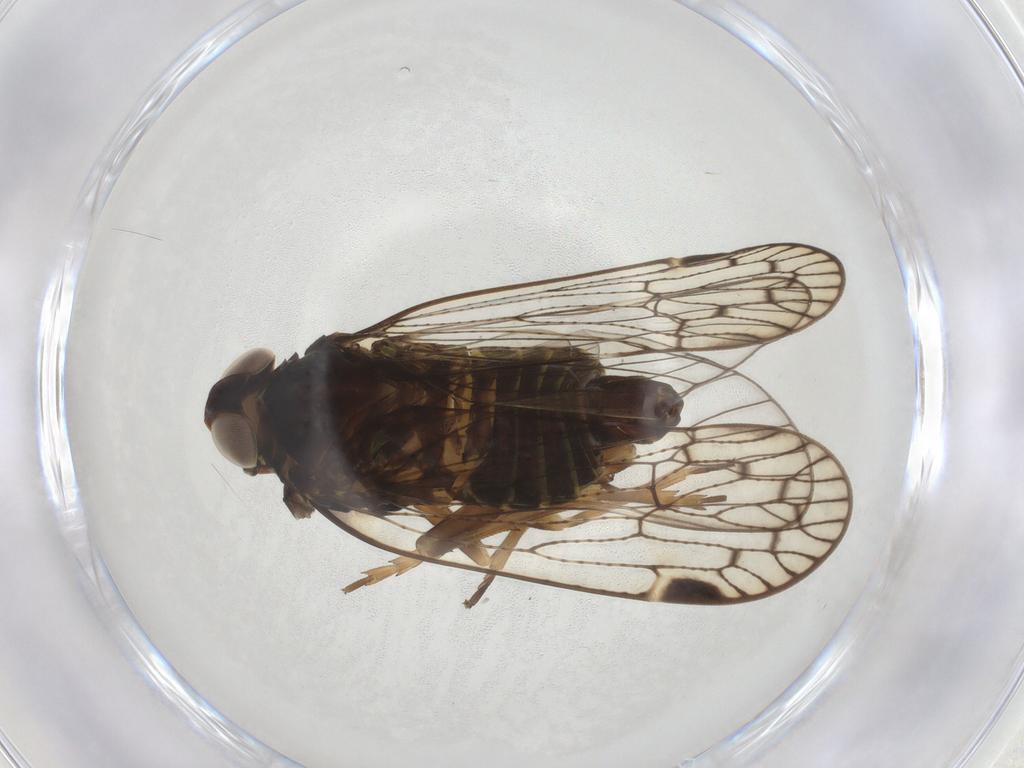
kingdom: Animalia
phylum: Arthropoda
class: Insecta
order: Hemiptera
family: Cixiidae
